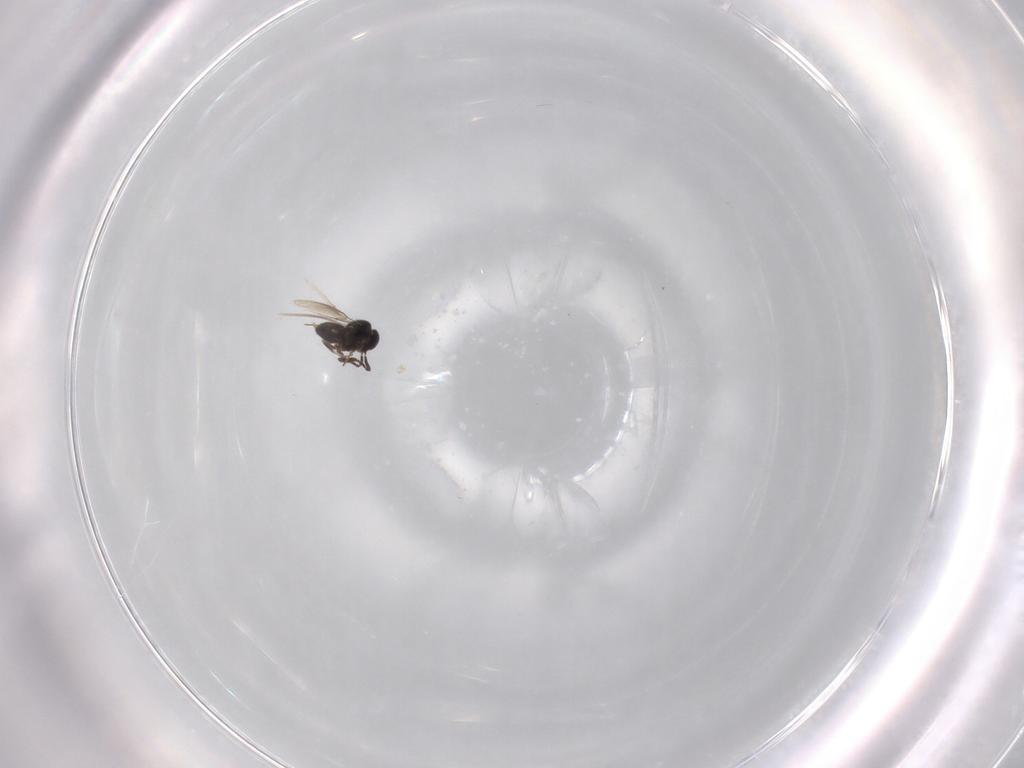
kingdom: Animalia
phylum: Arthropoda
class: Insecta
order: Hymenoptera
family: Scelionidae
